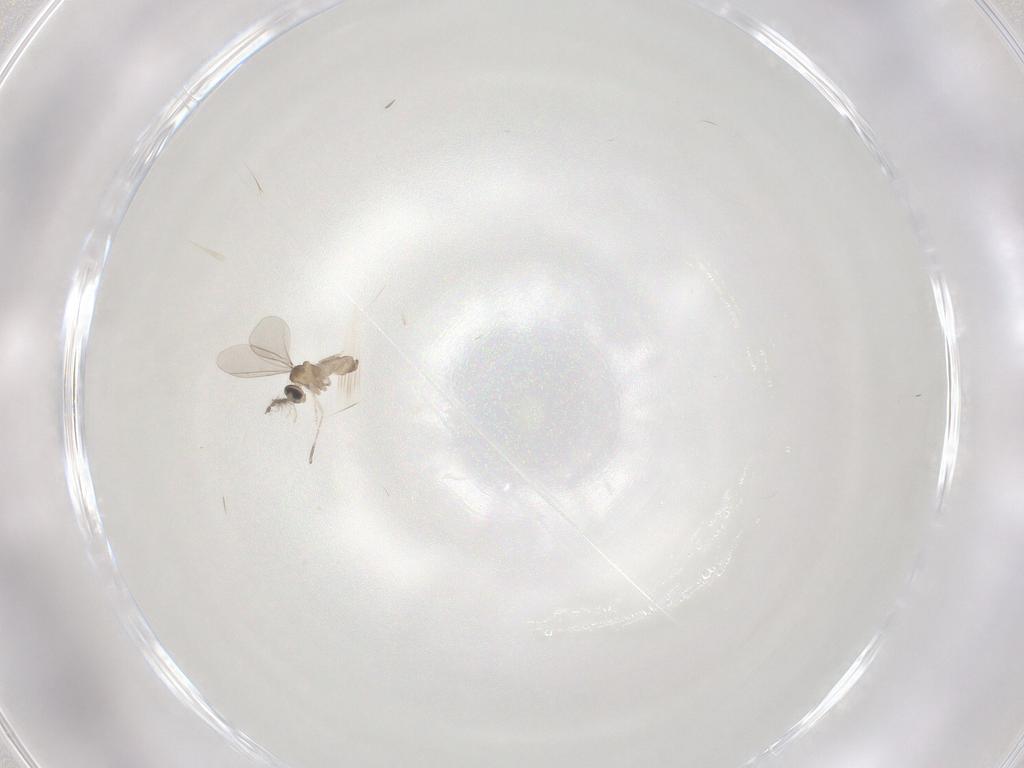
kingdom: Animalia
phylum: Arthropoda
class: Insecta
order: Diptera
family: Cecidomyiidae
